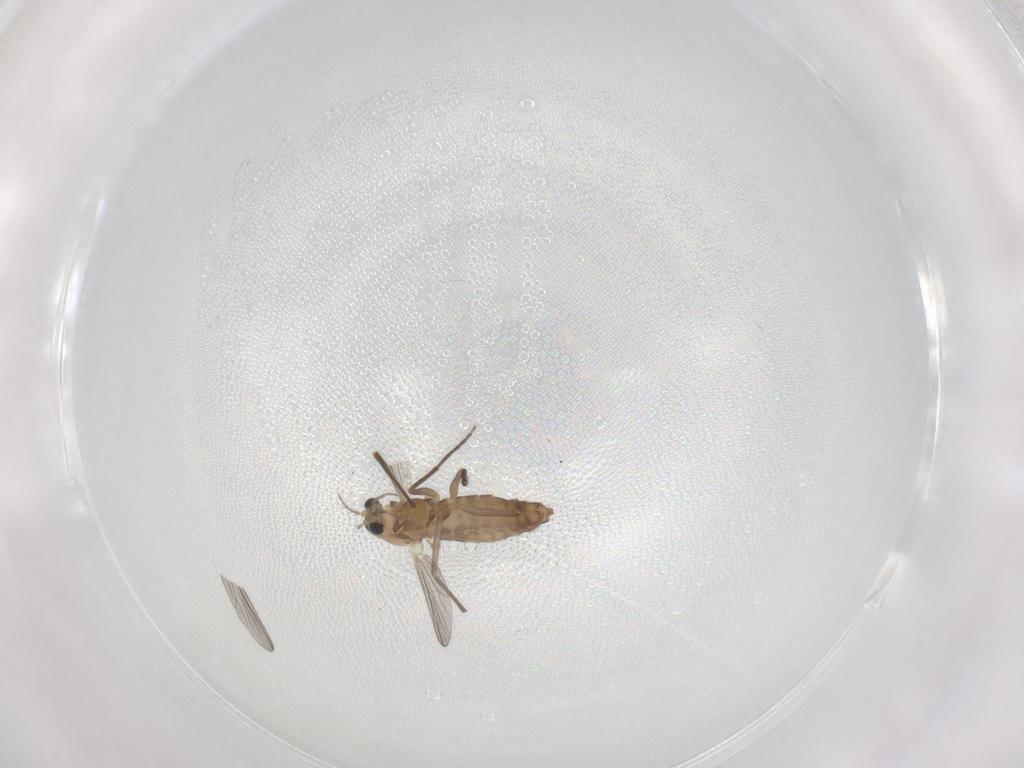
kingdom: Animalia
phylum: Arthropoda
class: Insecta
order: Diptera
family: Chironomidae
